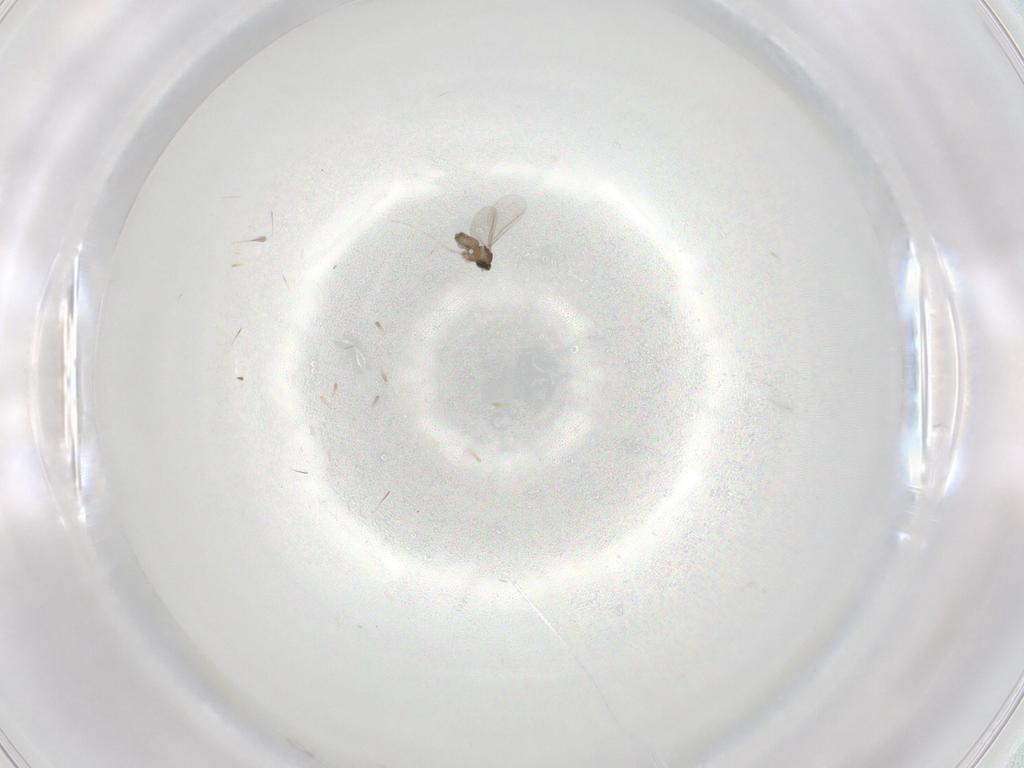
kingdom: Animalia
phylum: Arthropoda
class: Insecta
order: Diptera
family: Cecidomyiidae
